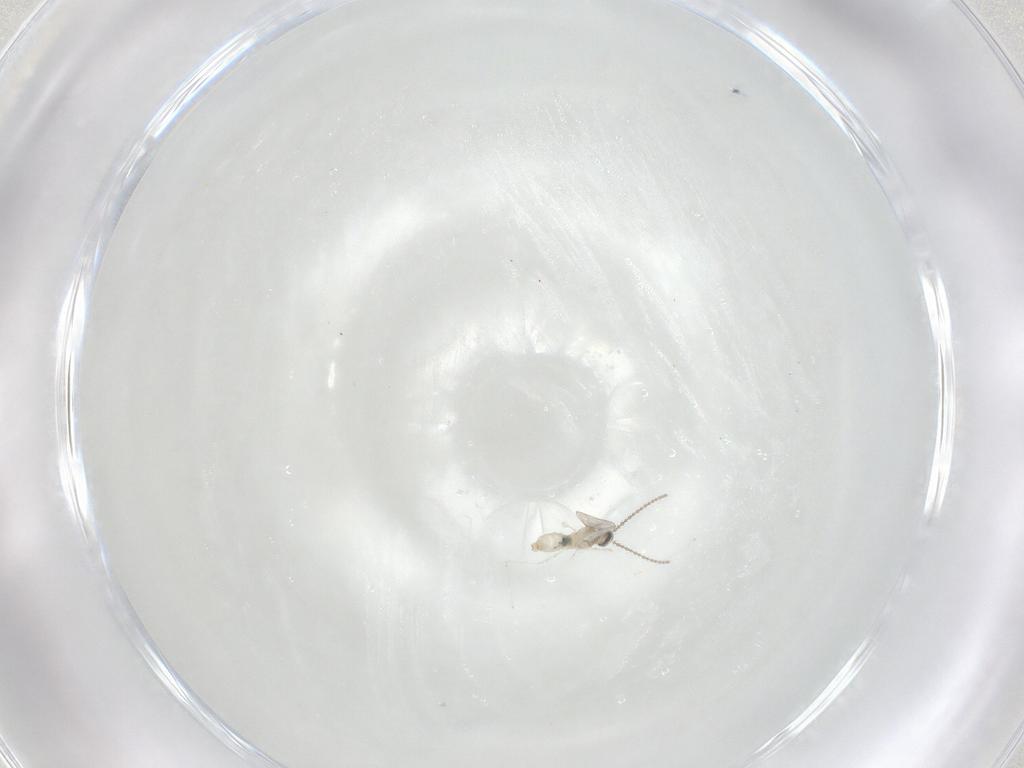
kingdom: Animalia
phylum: Arthropoda
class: Insecta
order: Diptera
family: Cecidomyiidae
